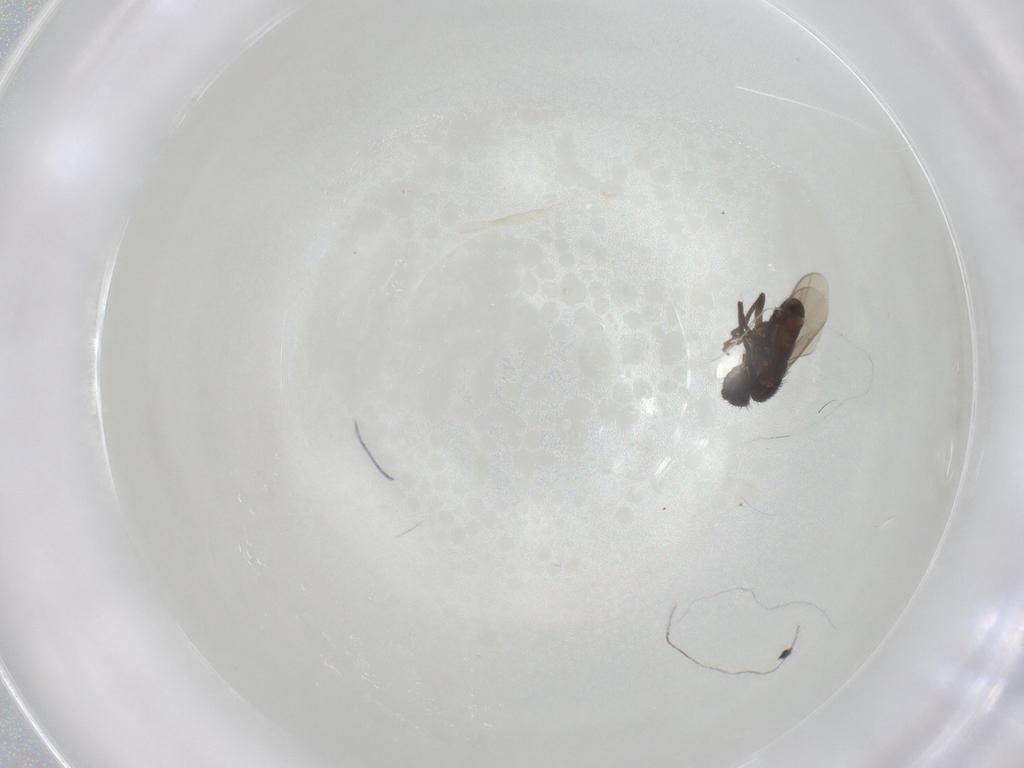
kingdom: Animalia
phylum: Arthropoda
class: Insecta
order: Diptera
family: Sphaeroceridae
